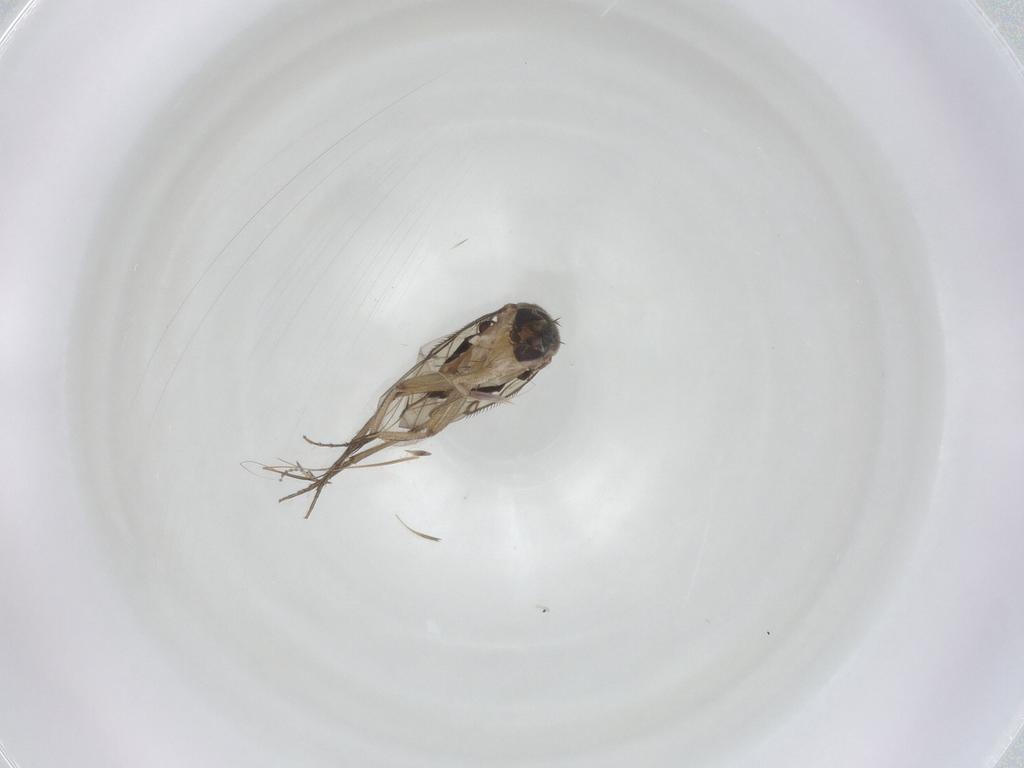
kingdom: Animalia
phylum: Arthropoda
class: Insecta
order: Diptera
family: Phoridae
